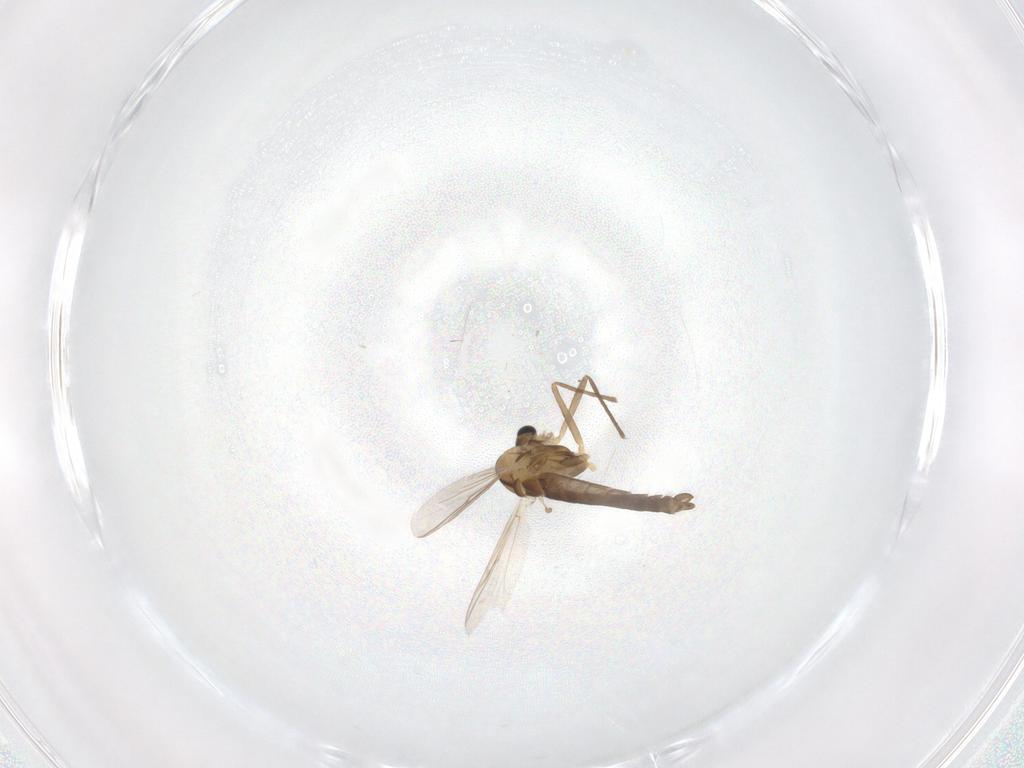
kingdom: Animalia
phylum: Arthropoda
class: Insecta
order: Diptera
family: Chironomidae
